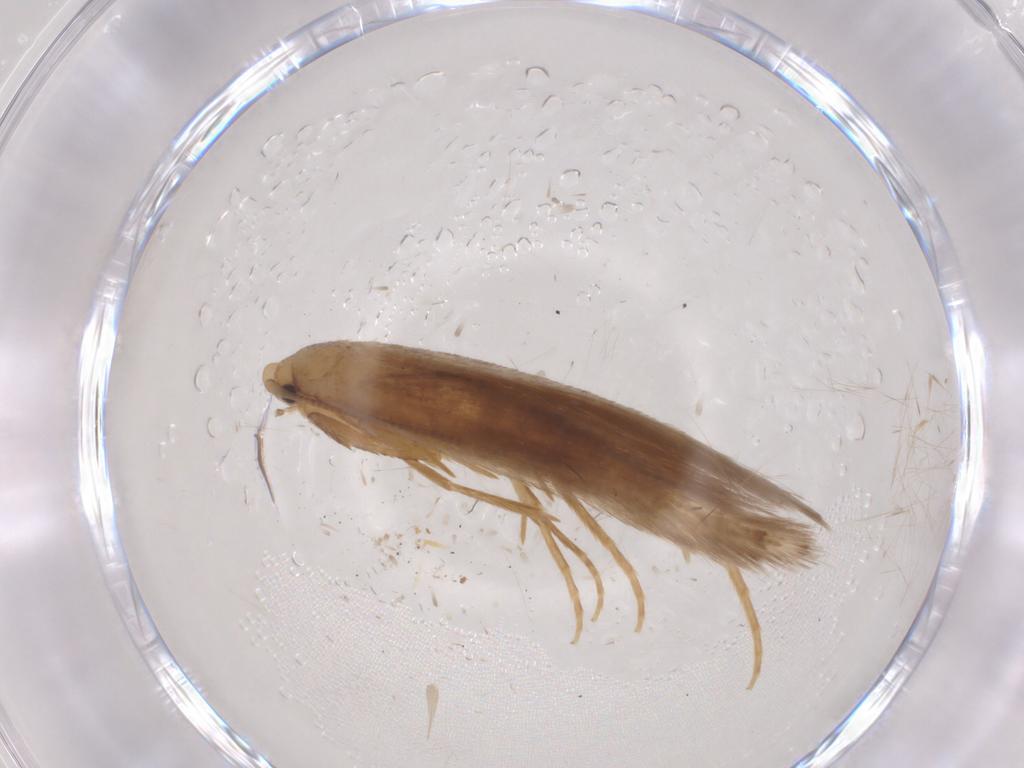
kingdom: Animalia
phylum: Arthropoda
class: Insecta
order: Lepidoptera
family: Tineidae
